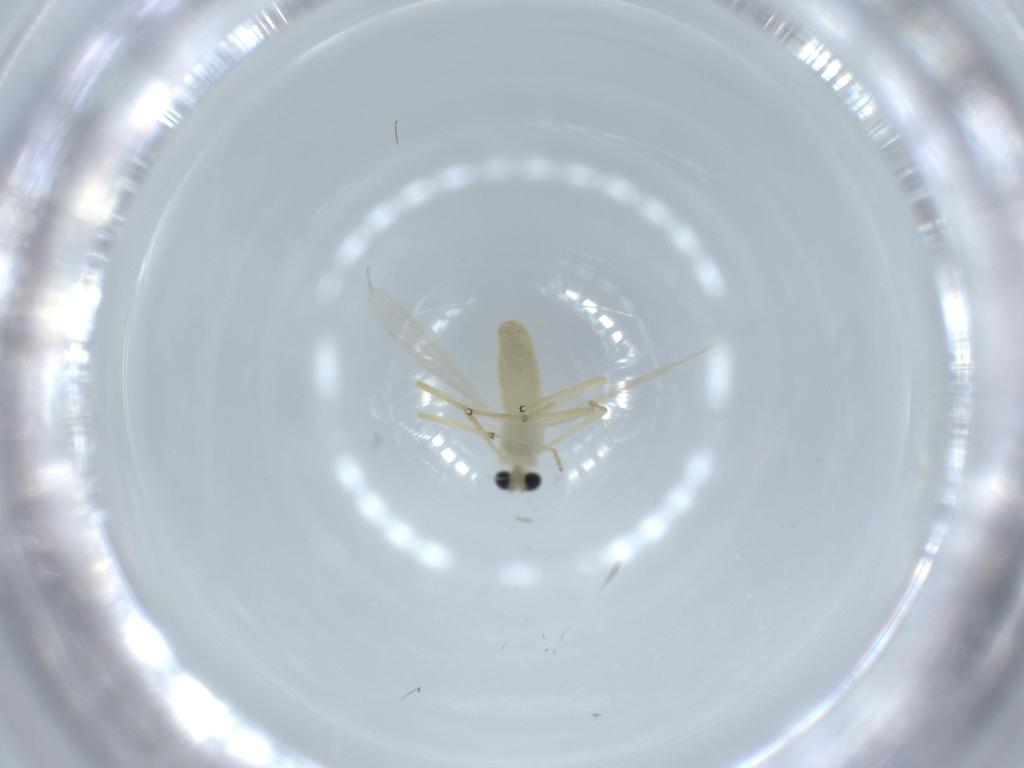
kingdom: Animalia
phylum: Arthropoda
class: Insecta
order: Diptera
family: Chironomidae
